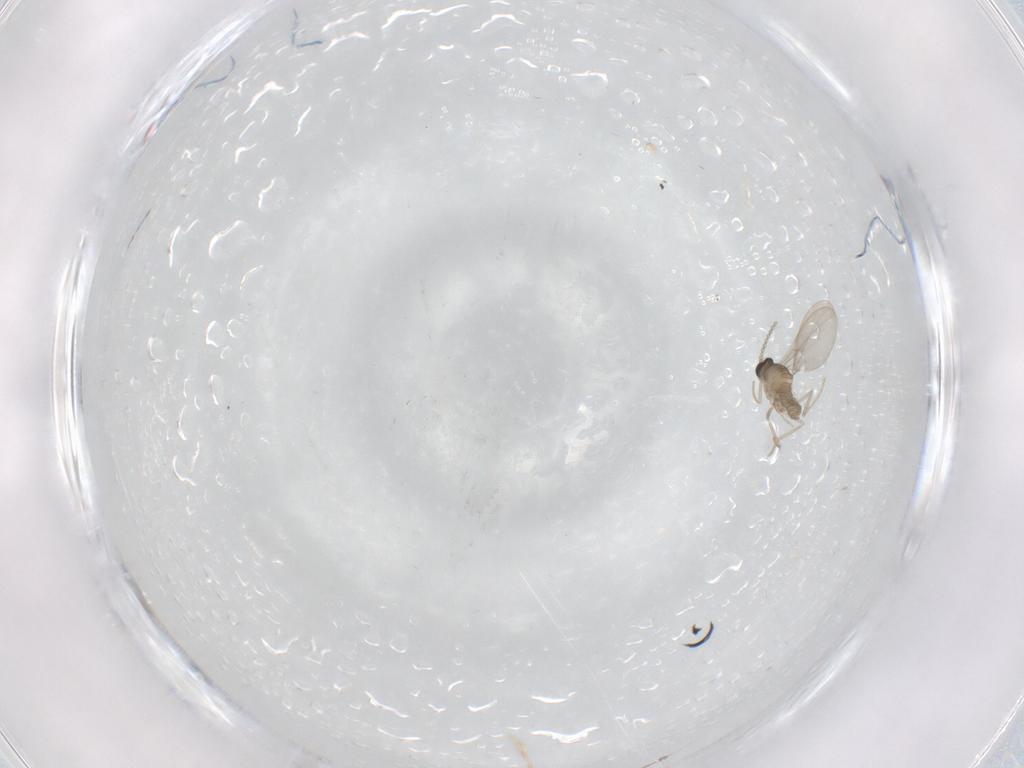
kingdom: Animalia
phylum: Arthropoda
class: Insecta
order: Diptera
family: Cecidomyiidae
